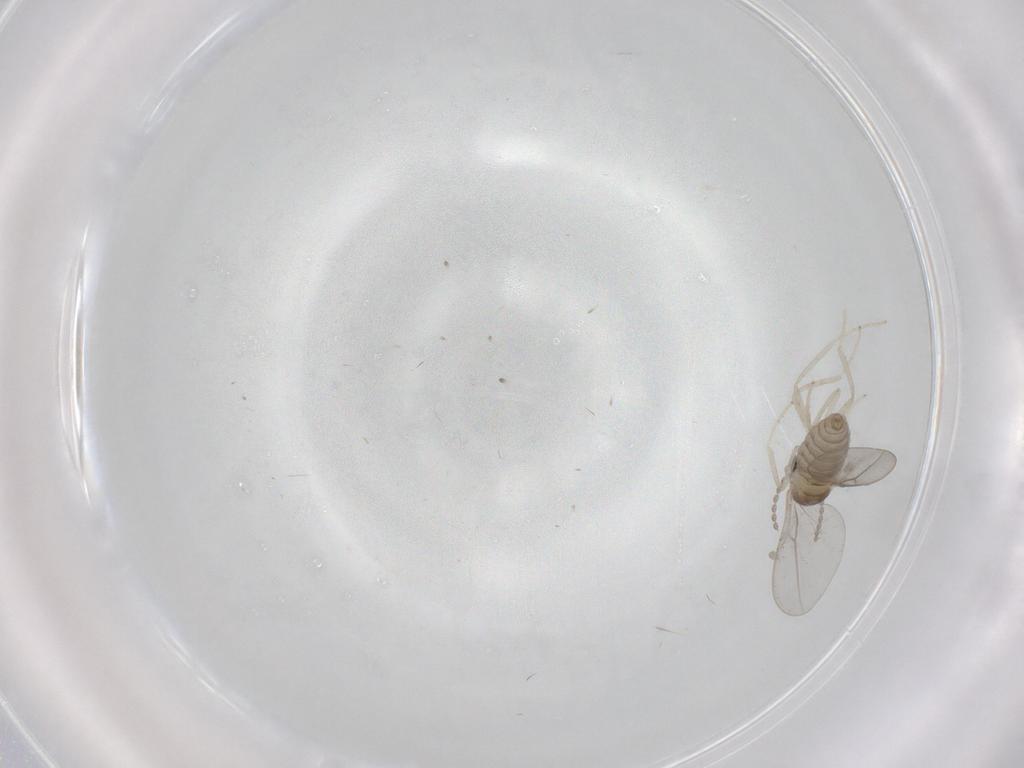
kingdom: Animalia
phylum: Arthropoda
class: Insecta
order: Diptera
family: Cecidomyiidae
